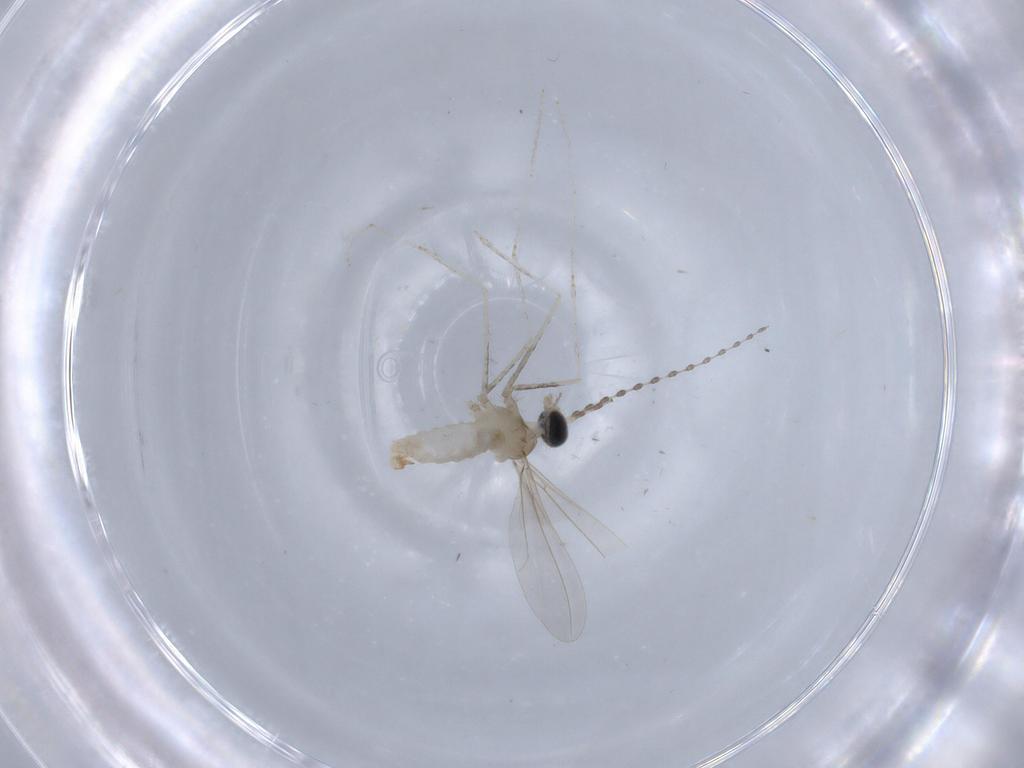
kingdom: Animalia
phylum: Arthropoda
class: Insecta
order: Diptera
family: Cecidomyiidae
